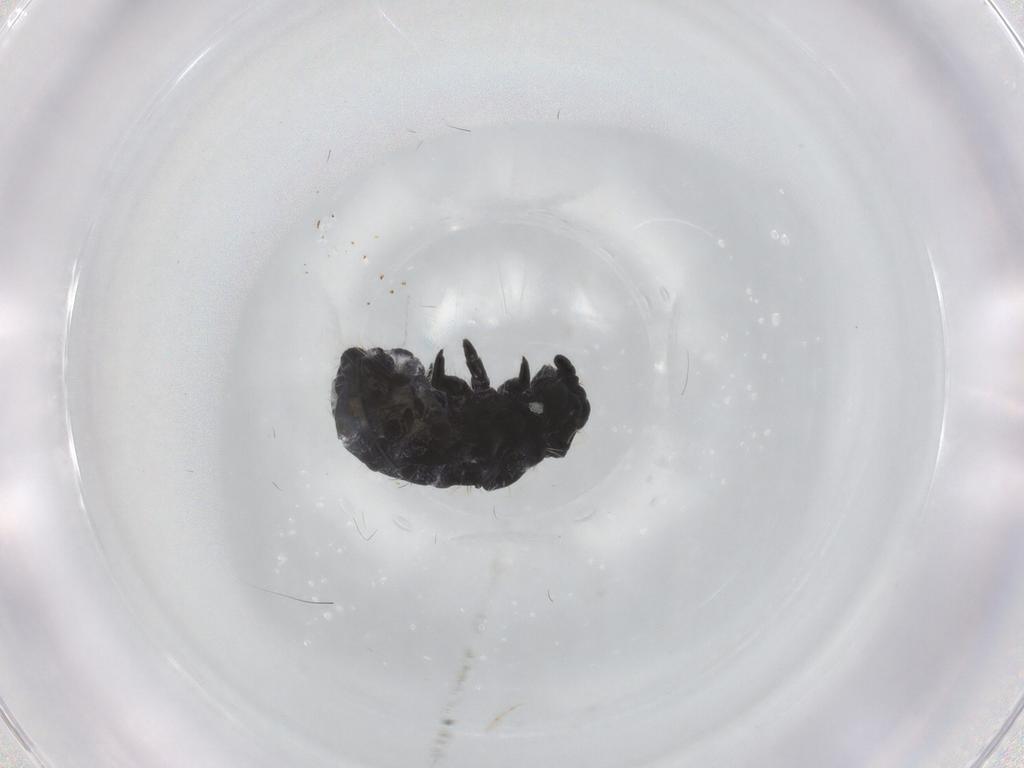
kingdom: Animalia
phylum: Arthropoda
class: Collembola
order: Poduromorpha
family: Neanuridae
